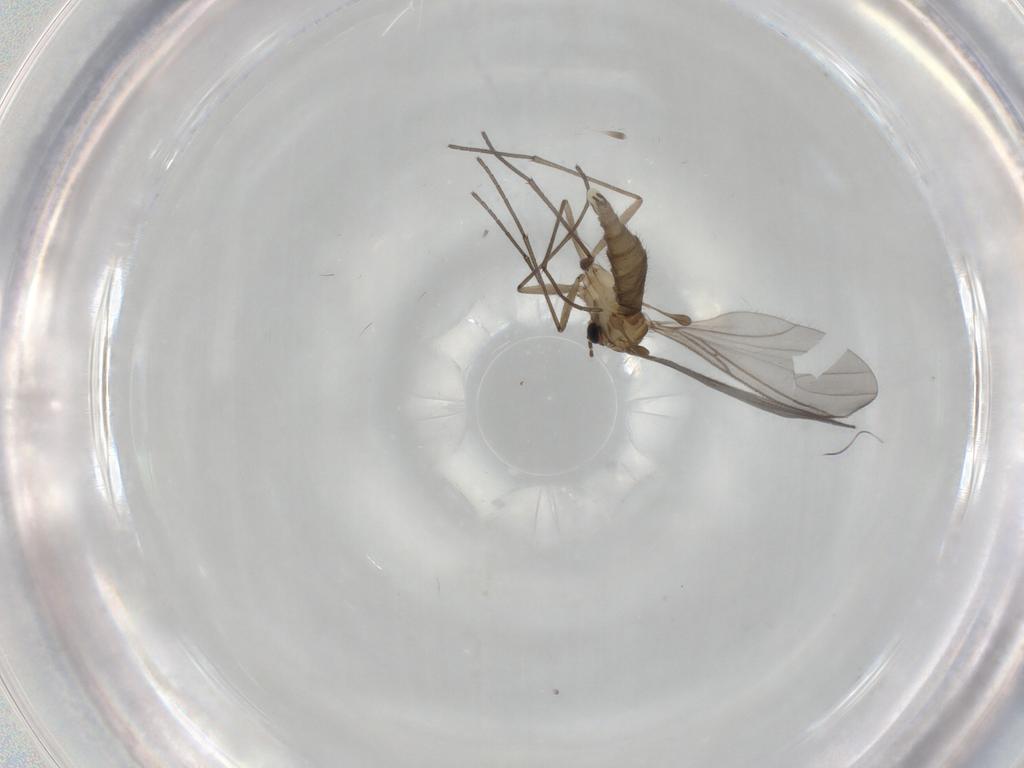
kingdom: Animalia
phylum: Arthropoda
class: Insecta
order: Diptera
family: Sciaridae
